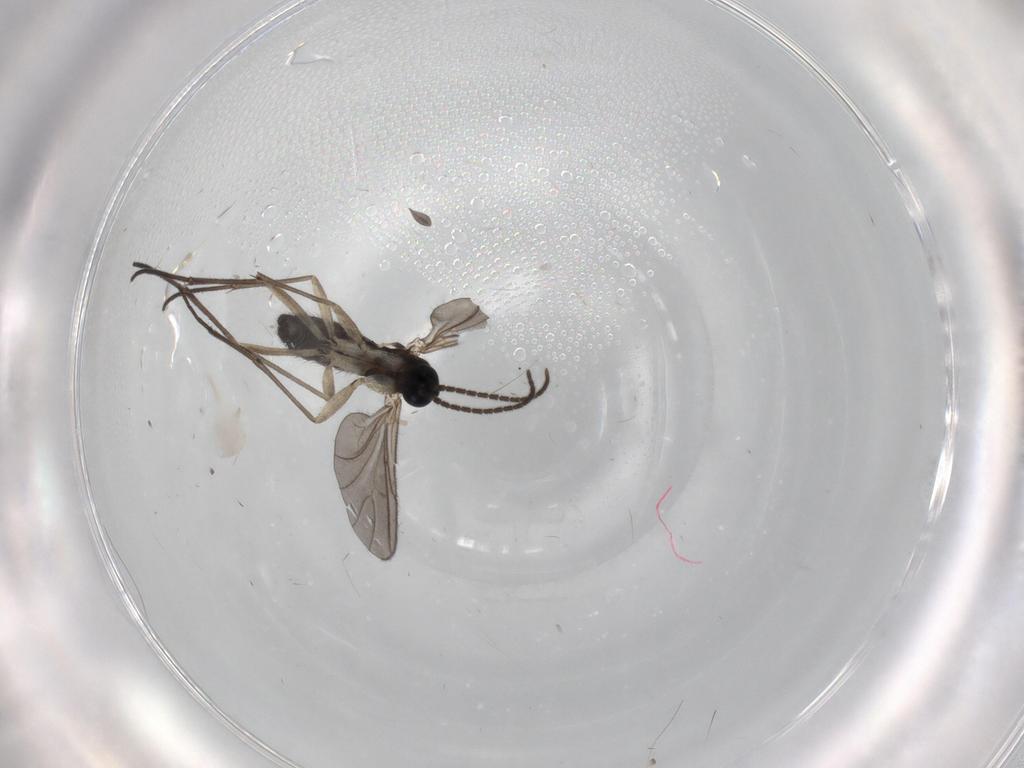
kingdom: Animalia
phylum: Arthropoda
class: Insecta
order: Diptera
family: Sciaridae
